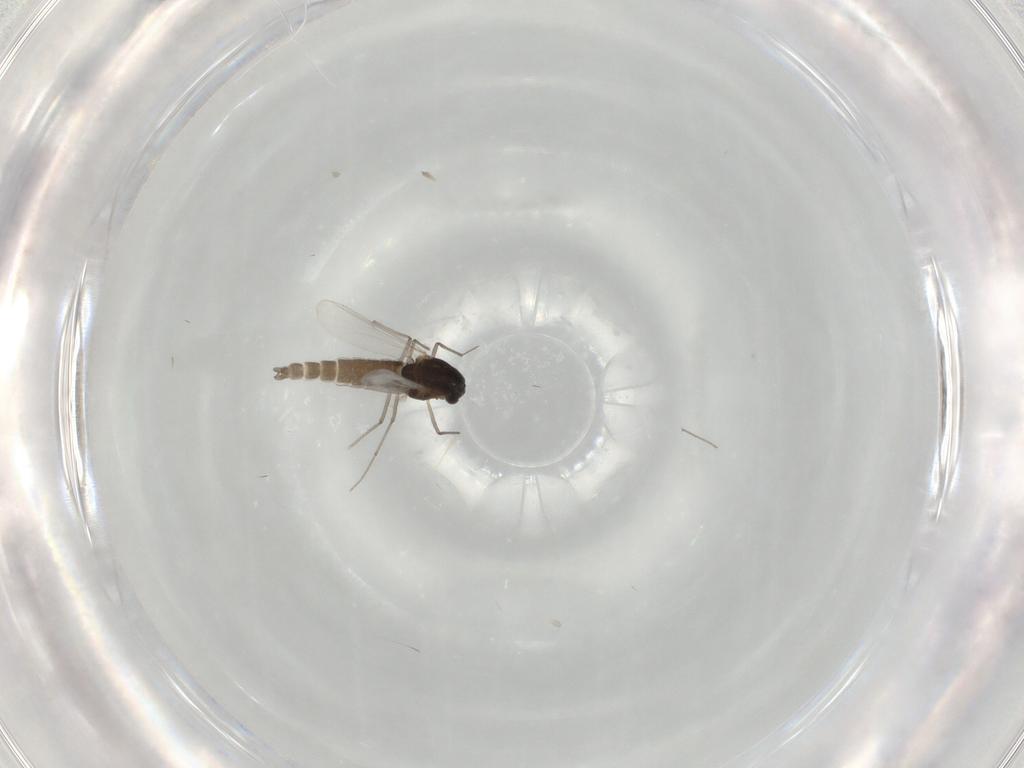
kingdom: Animalia
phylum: Arthropoda
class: Insecta
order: Diptera
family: Chironomidae
